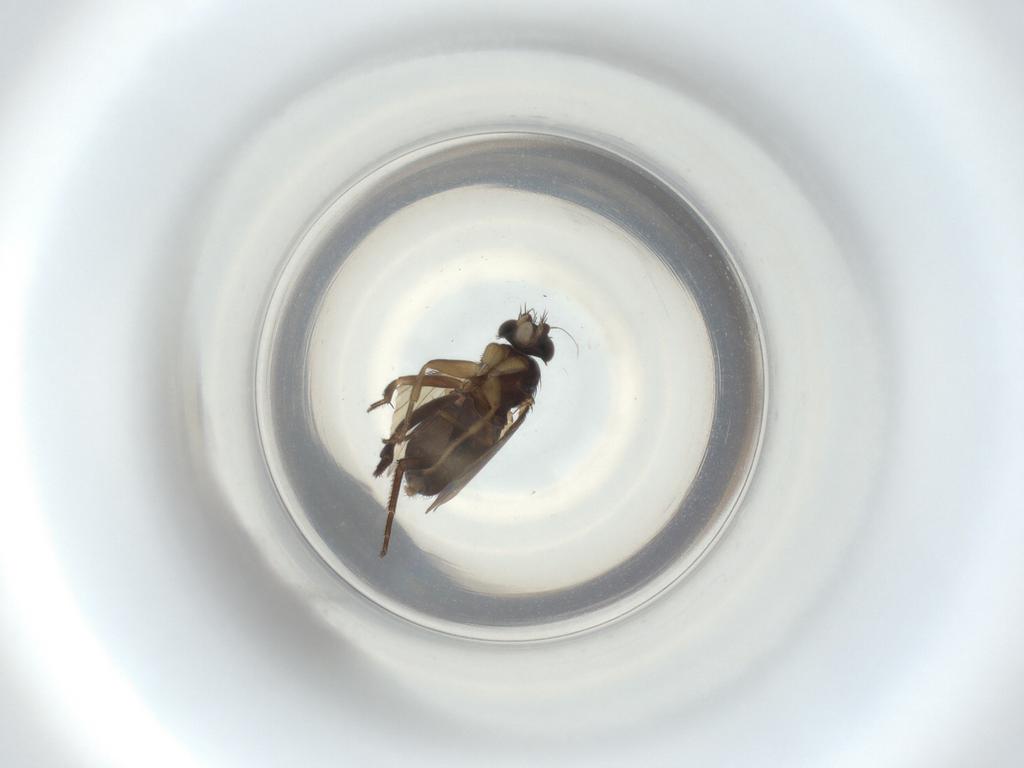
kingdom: Animalia
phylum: Arthropoda
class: Insecta
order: Diptera
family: Phoridae
